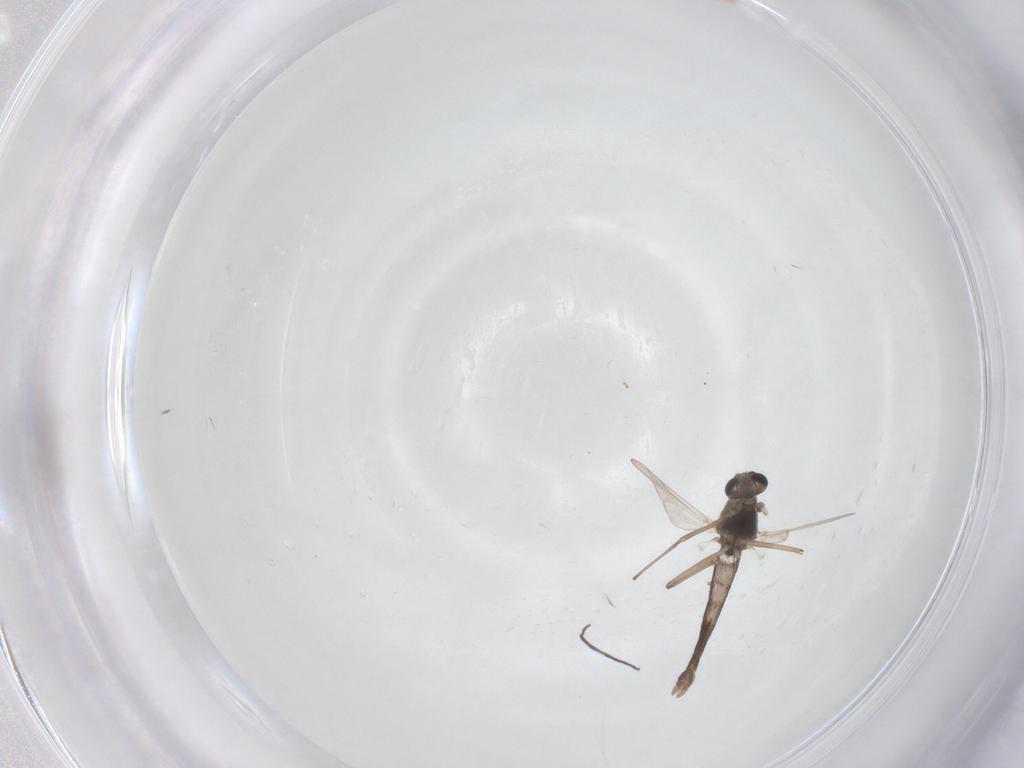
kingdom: Animalia
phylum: Arthropoda
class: Insecta
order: Diptera
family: Chironomidae
